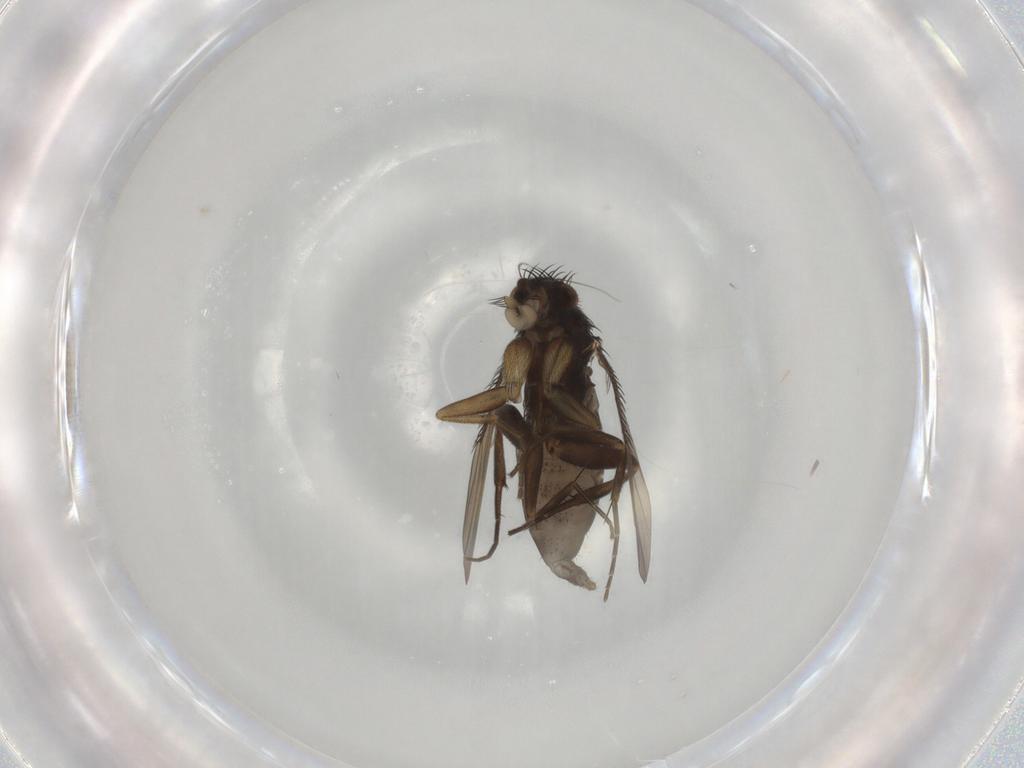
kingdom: Animalia
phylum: Arthropoda
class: Insecta
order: Diptera
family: Phoridae
